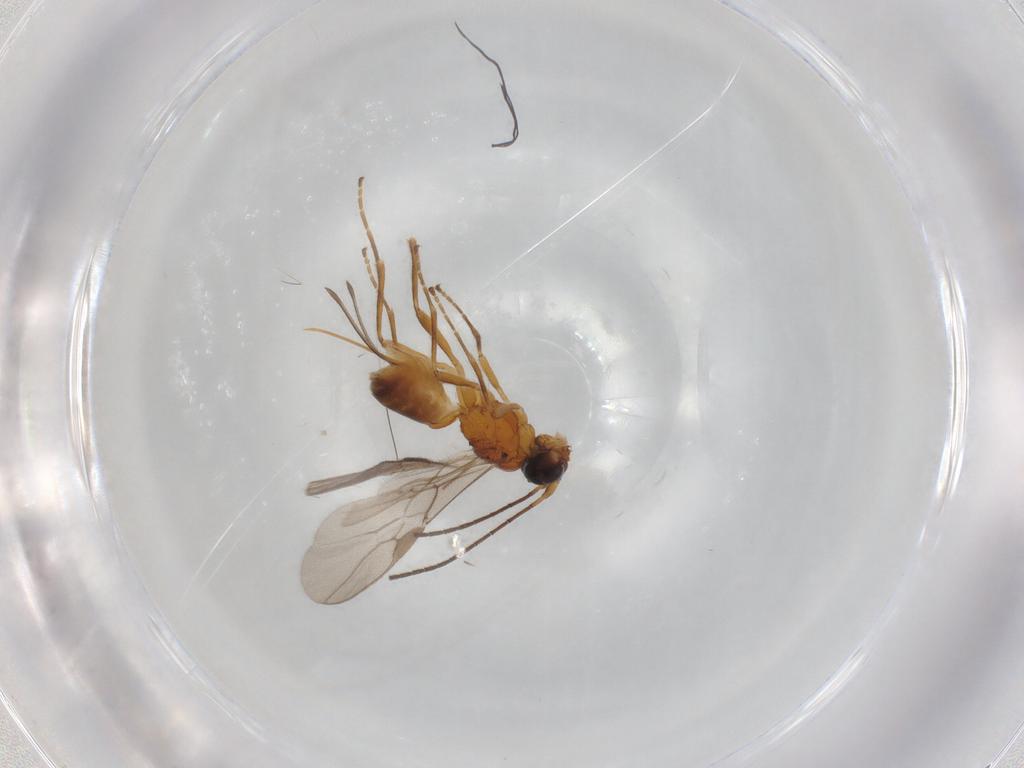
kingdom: Animalia
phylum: Arthropoda
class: Insecta
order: Hymenoptera
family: Braconidae
